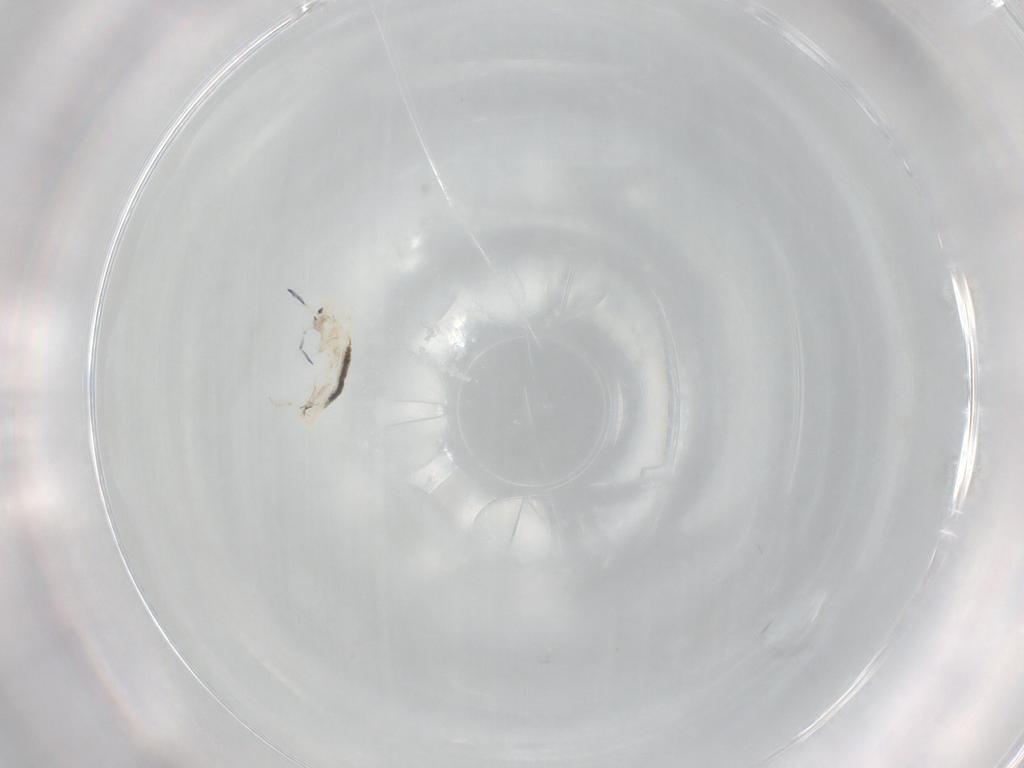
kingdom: Animalia
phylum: Arthropoda
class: Collembola
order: Entomobryomorpha
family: Entomobryidae
